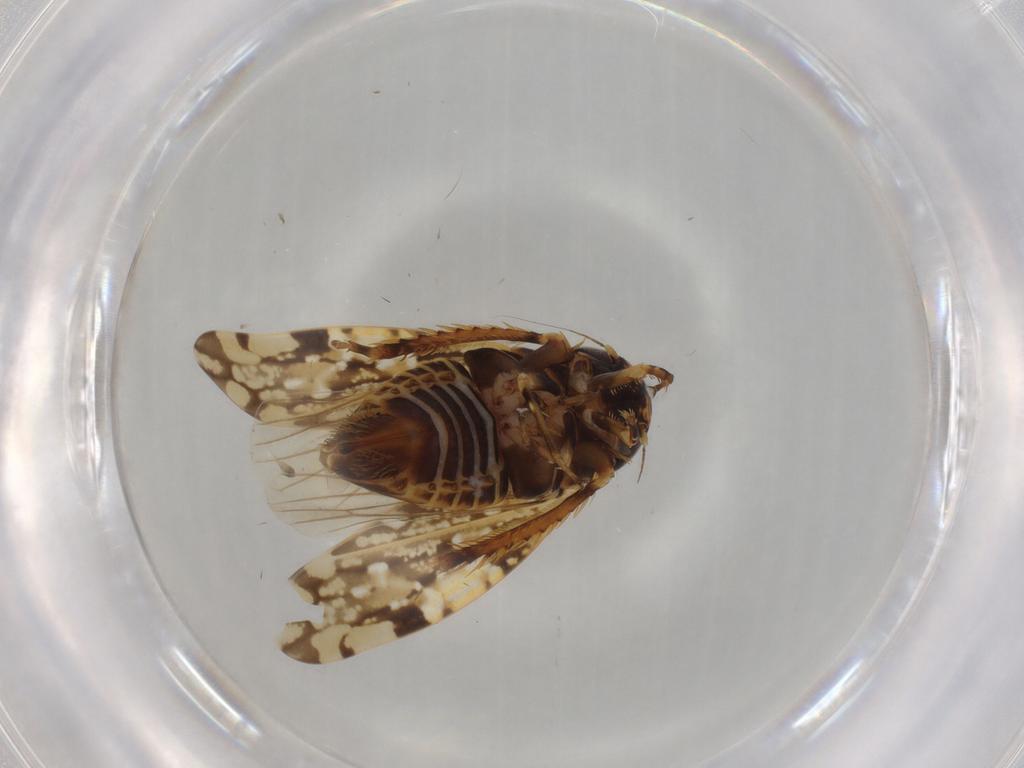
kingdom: Animalia
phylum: Arthropoda
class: Insecta
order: Hemiptera
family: Cicadellidae
